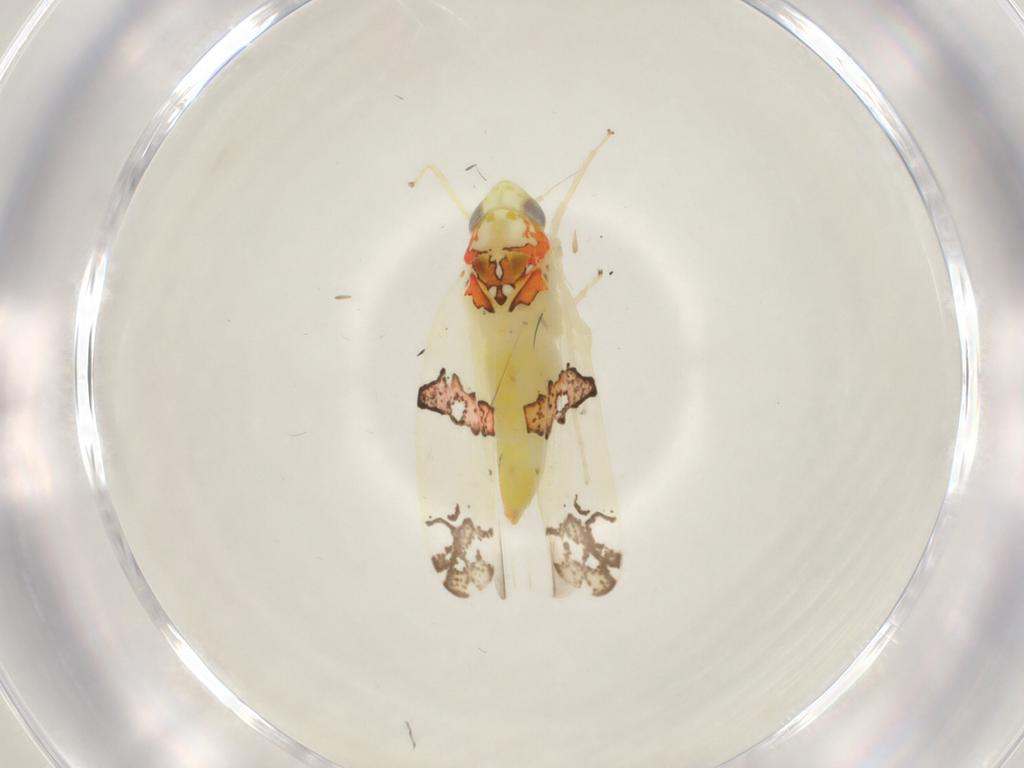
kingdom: Animalia
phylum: Arthropoda
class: Insecta
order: Hemiptera
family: Cicadellidae
